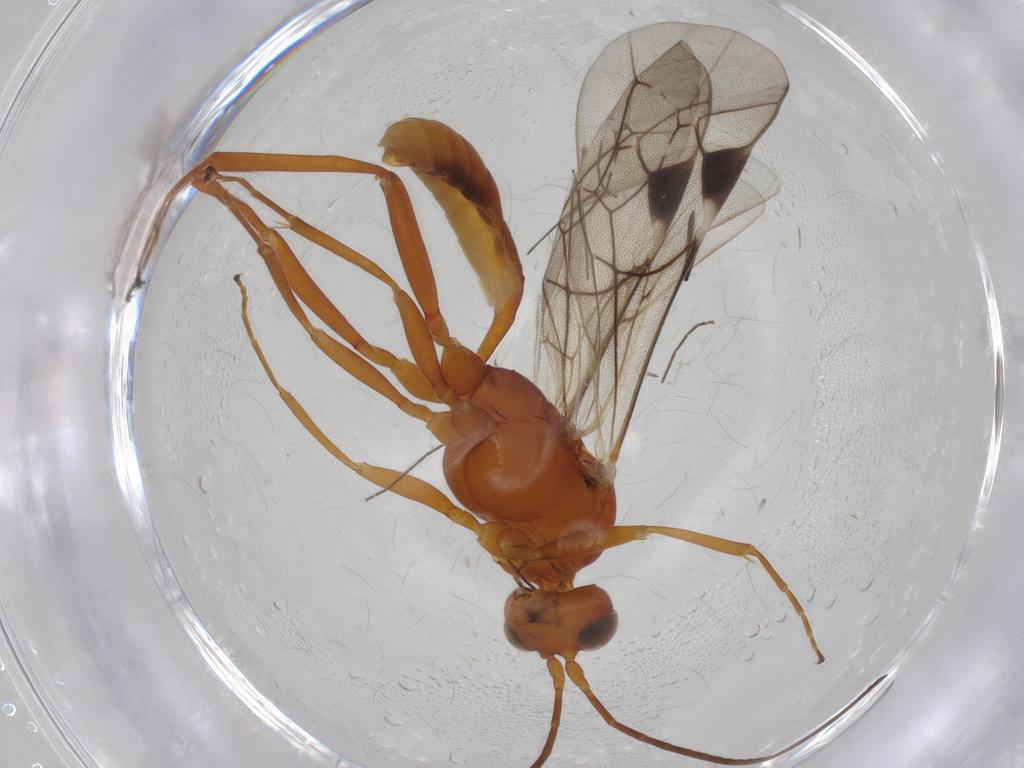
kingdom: Animalia
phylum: Arthropoda
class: Insecta
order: Hymenoptera
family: Ichneumonidae
